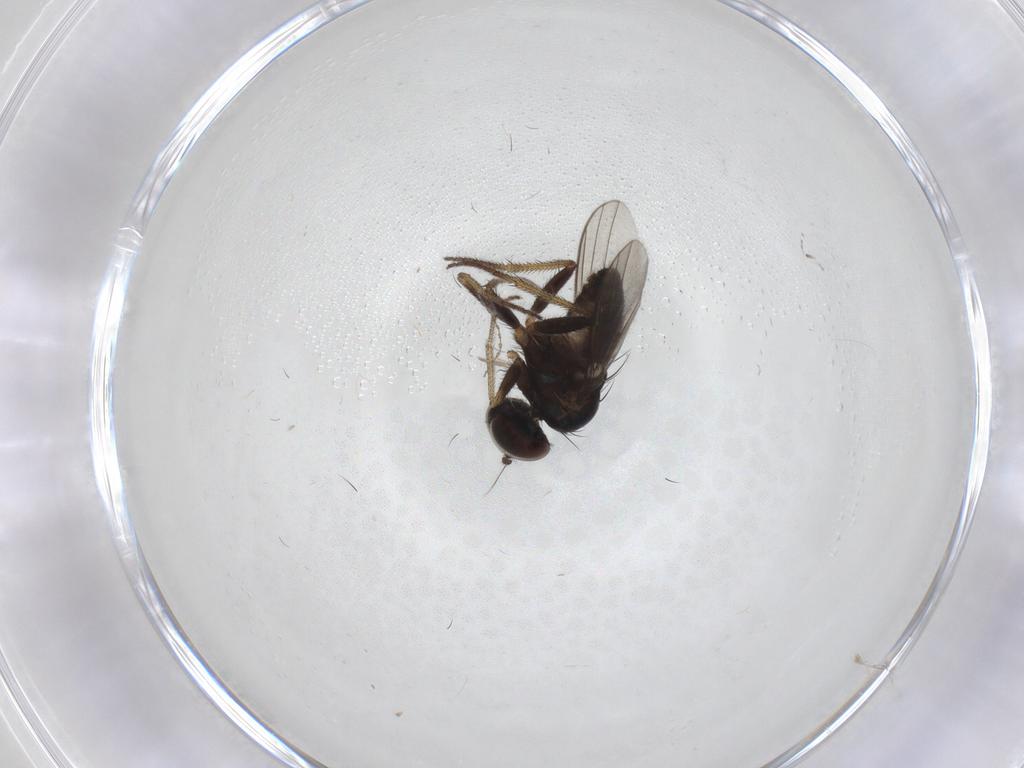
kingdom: Animalia
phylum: Arthropoda
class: Insecta
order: Diptera
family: Chironomidae
